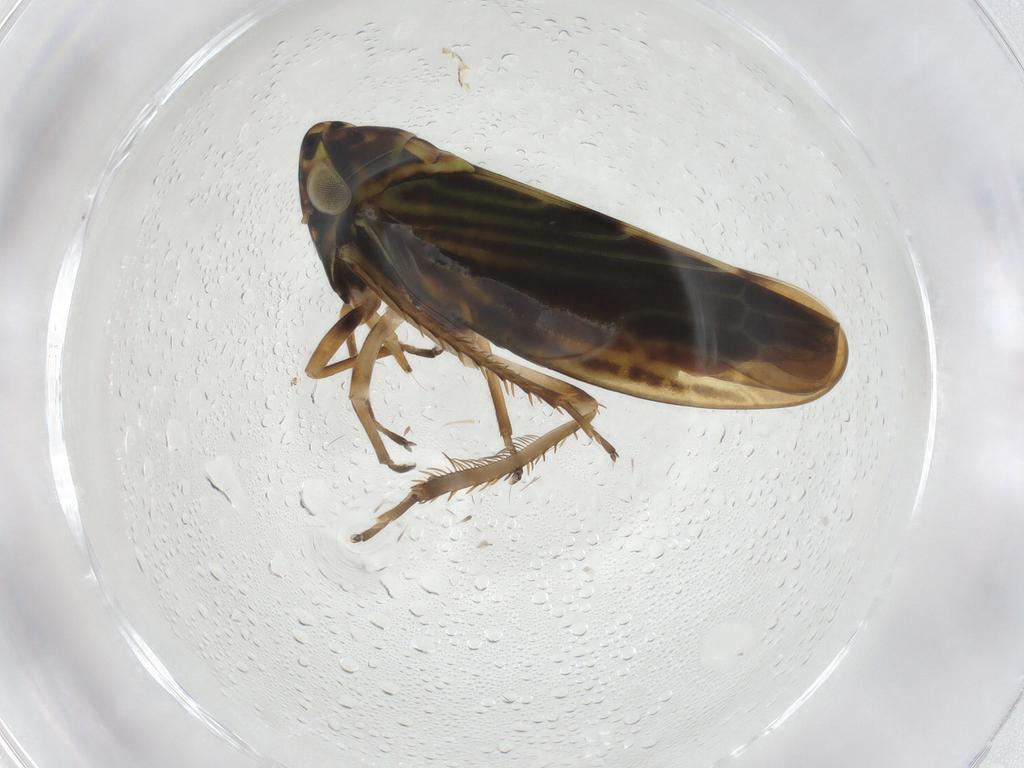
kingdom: Animalia
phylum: Arthropoda
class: Insecta
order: Hemiptera
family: Cicadellidae
